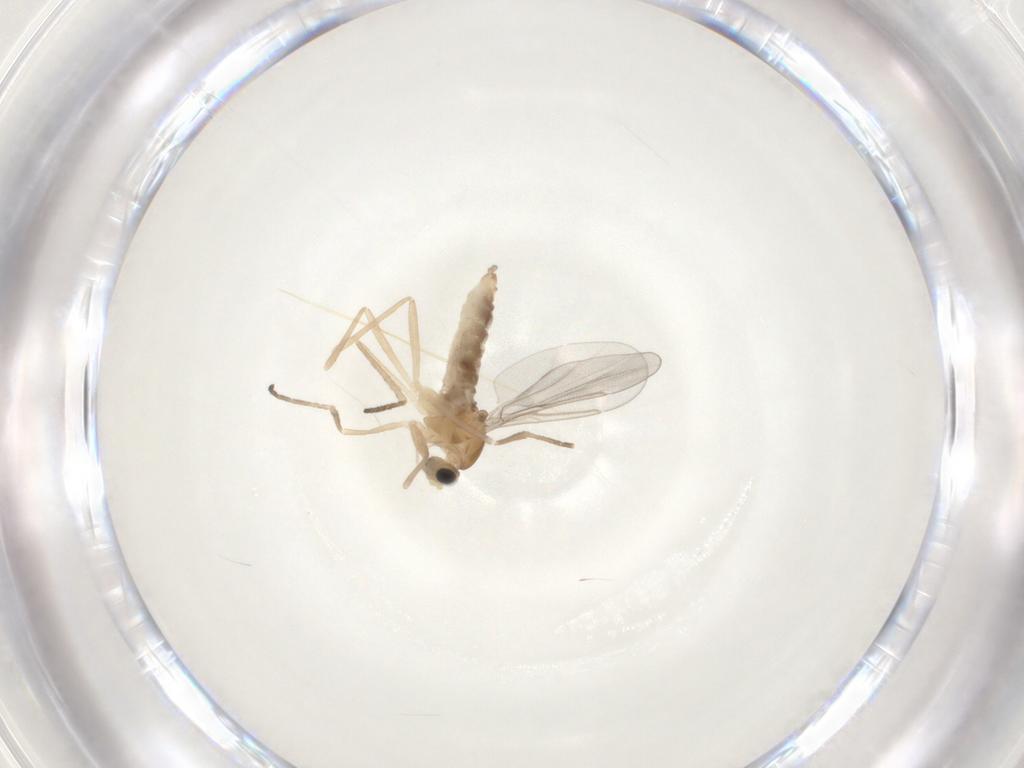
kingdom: Animalia
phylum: Arthropoda
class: Insecta
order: Diptera
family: Cecidomyiidae
